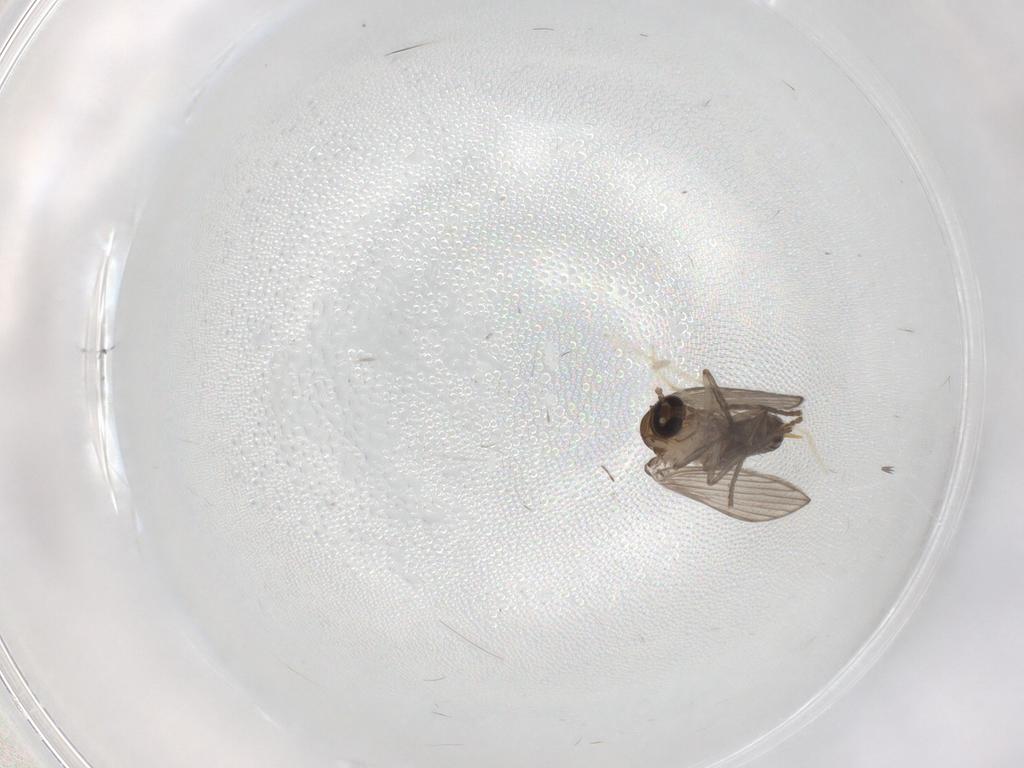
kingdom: Animalia
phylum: Arthropoda
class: Insecta
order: Diptera
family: Psychodidae
